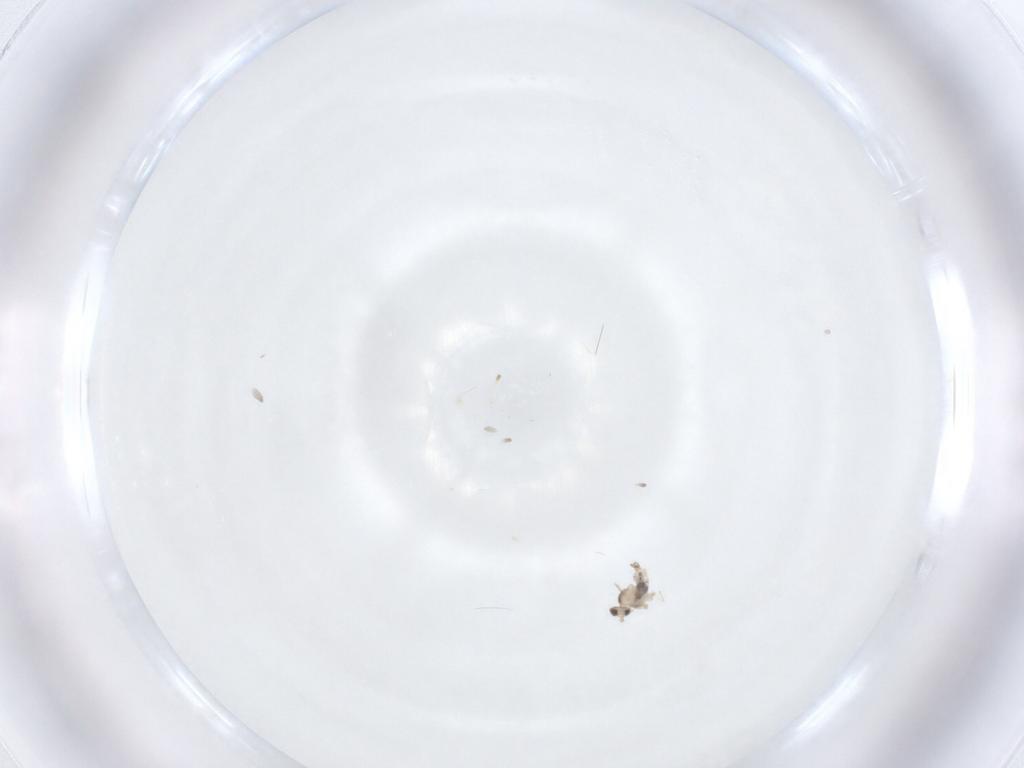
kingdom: Animalia
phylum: Arthropoda
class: Insecta
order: Diptera
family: Cecidomyiidae
